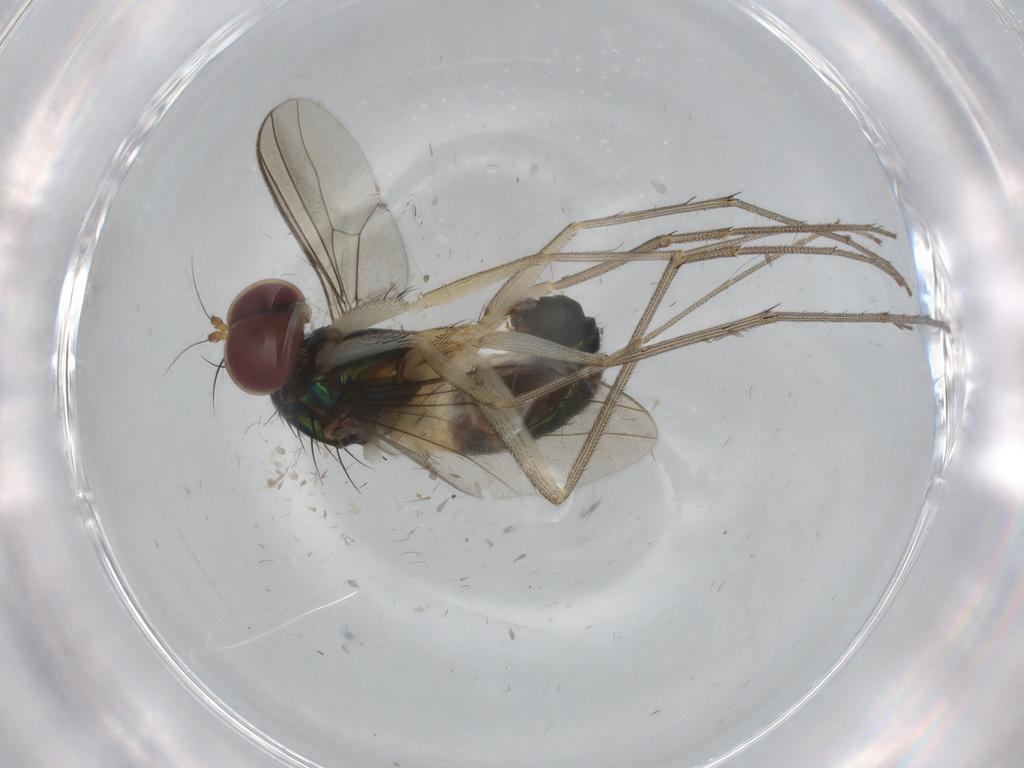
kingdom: Animalia
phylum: Arthropoda
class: Insecta
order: Diptera
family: Dolichopodidae
